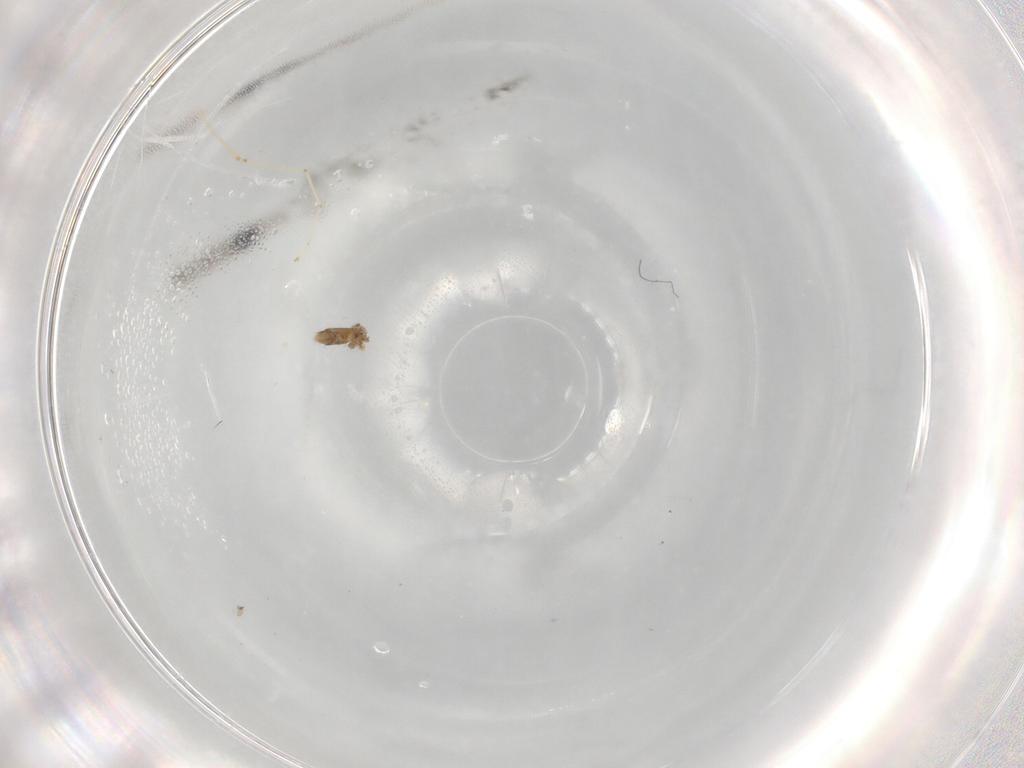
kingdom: Animalia
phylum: Arthropoda
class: Insecta
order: Diptera
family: Cecidomyiidae
